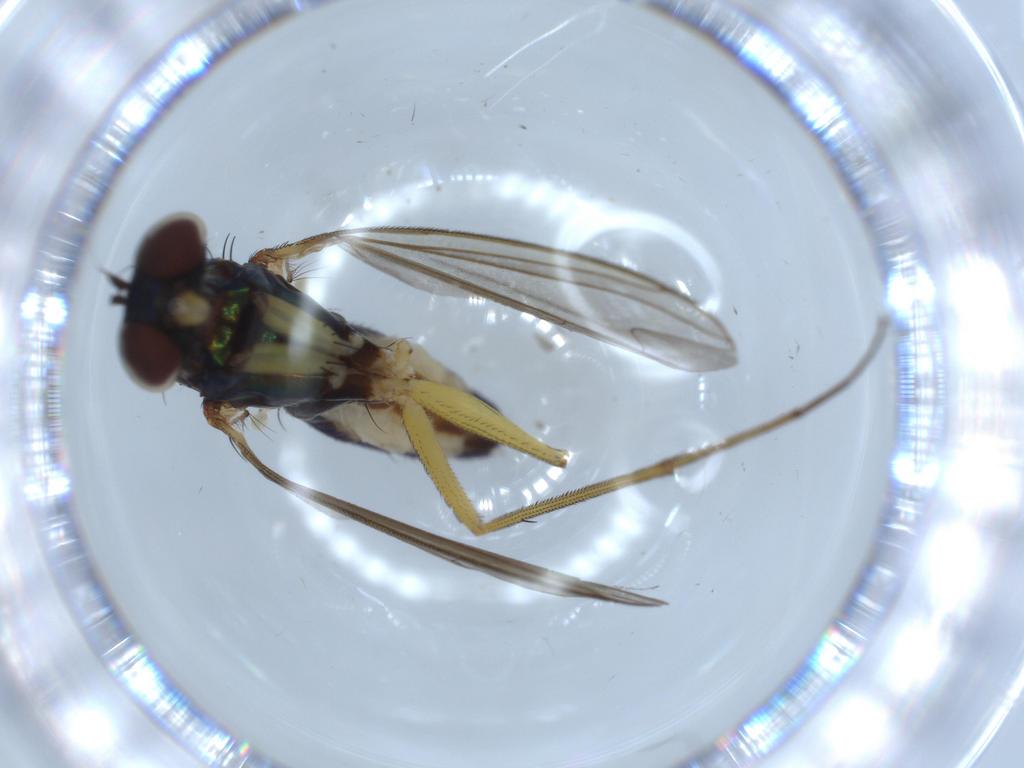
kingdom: Animalia
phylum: Arthropoda
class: Insecta
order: Diptera
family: Dolichopodidae
